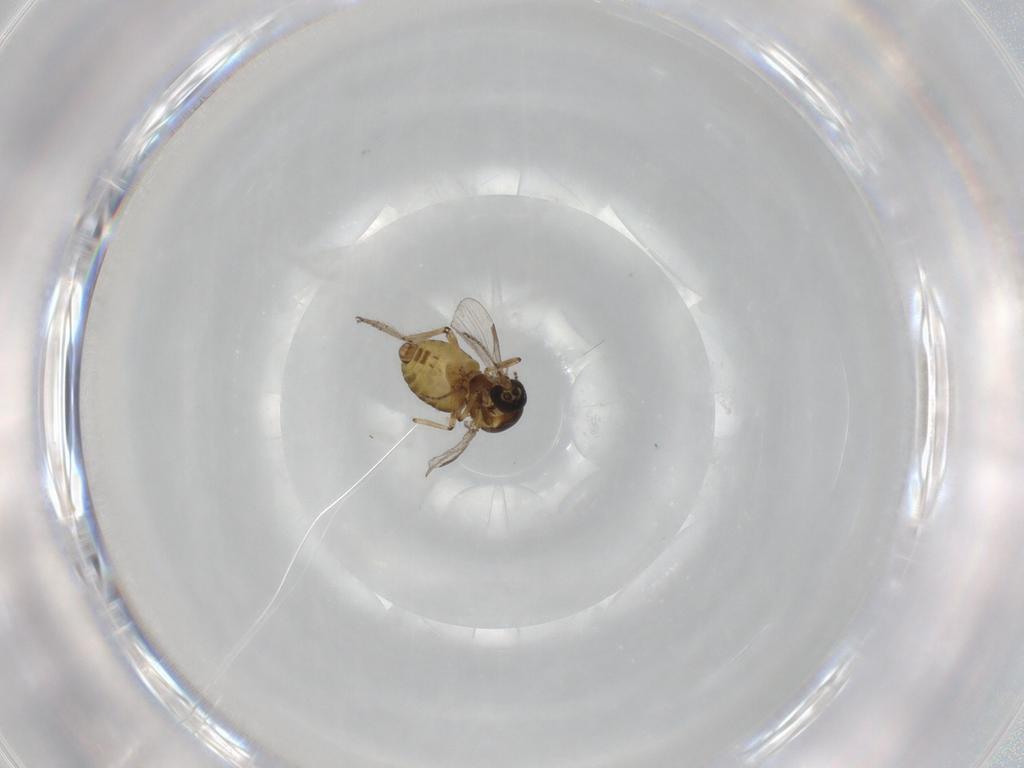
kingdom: Animalia
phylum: Arthropoda
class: Insecta
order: Diptera
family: Ceratopogonidae
